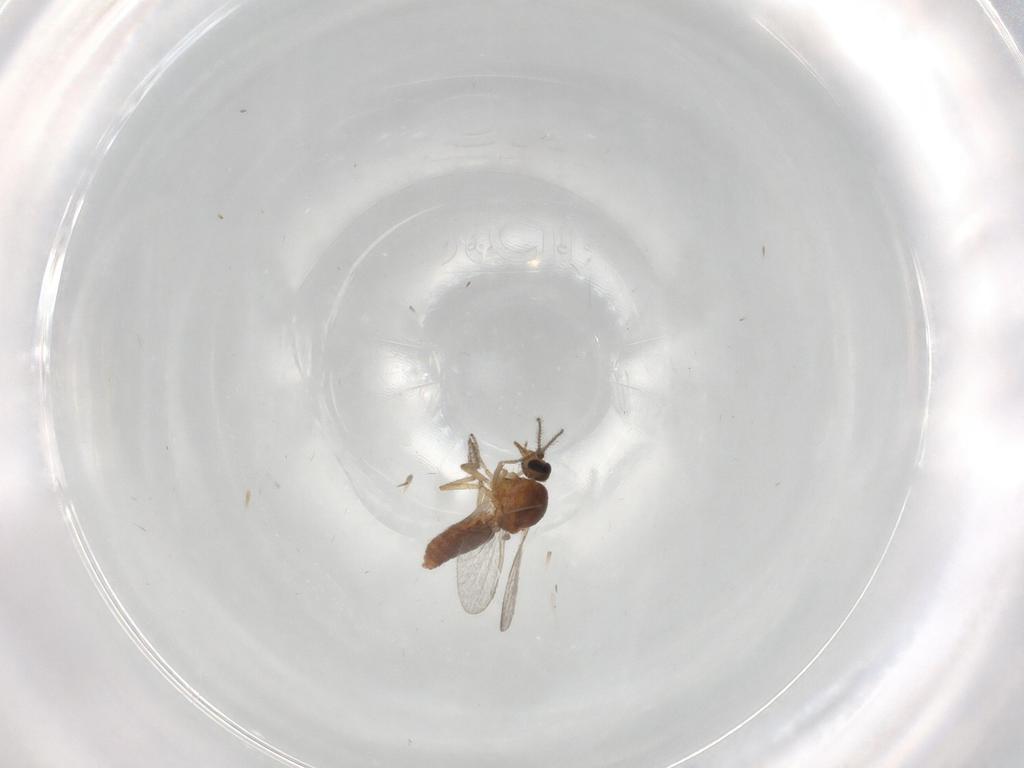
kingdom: Animalia
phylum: Arthropoda
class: Insecta
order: Diptera
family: Ceratopogonidae
